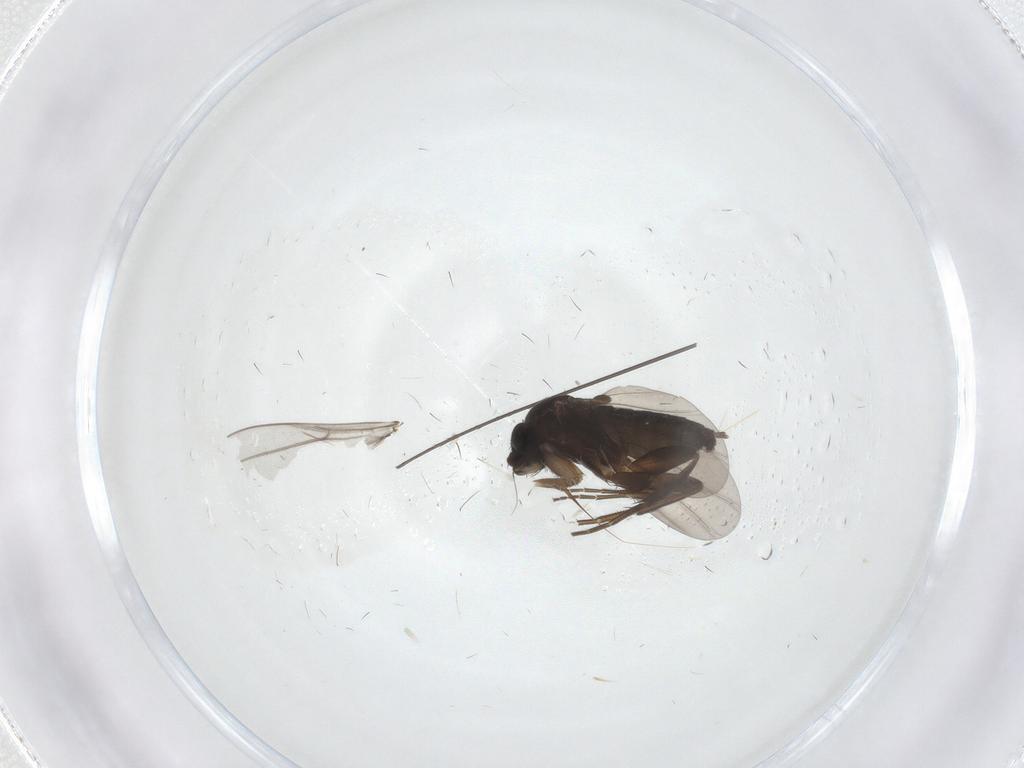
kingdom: Animalia
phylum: Arthropoda
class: Insecta
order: Diptera
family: Phoridae
